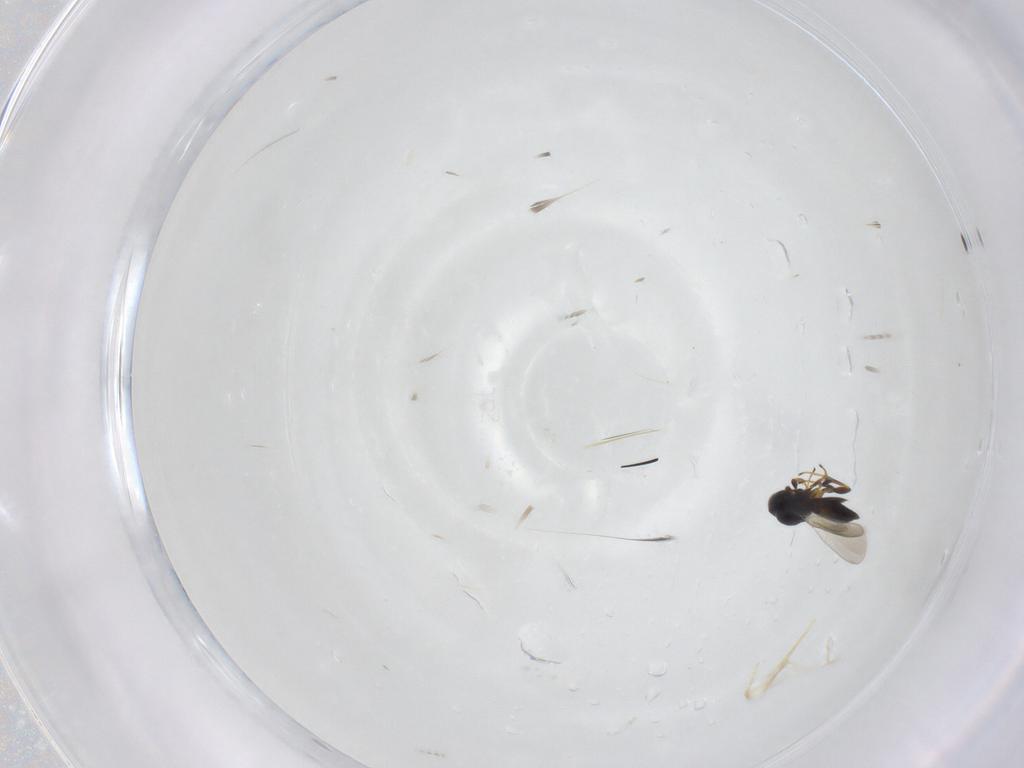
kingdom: Animalia
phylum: Arthropoda
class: Insecta
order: Hymenoptera
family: Platygastridae
